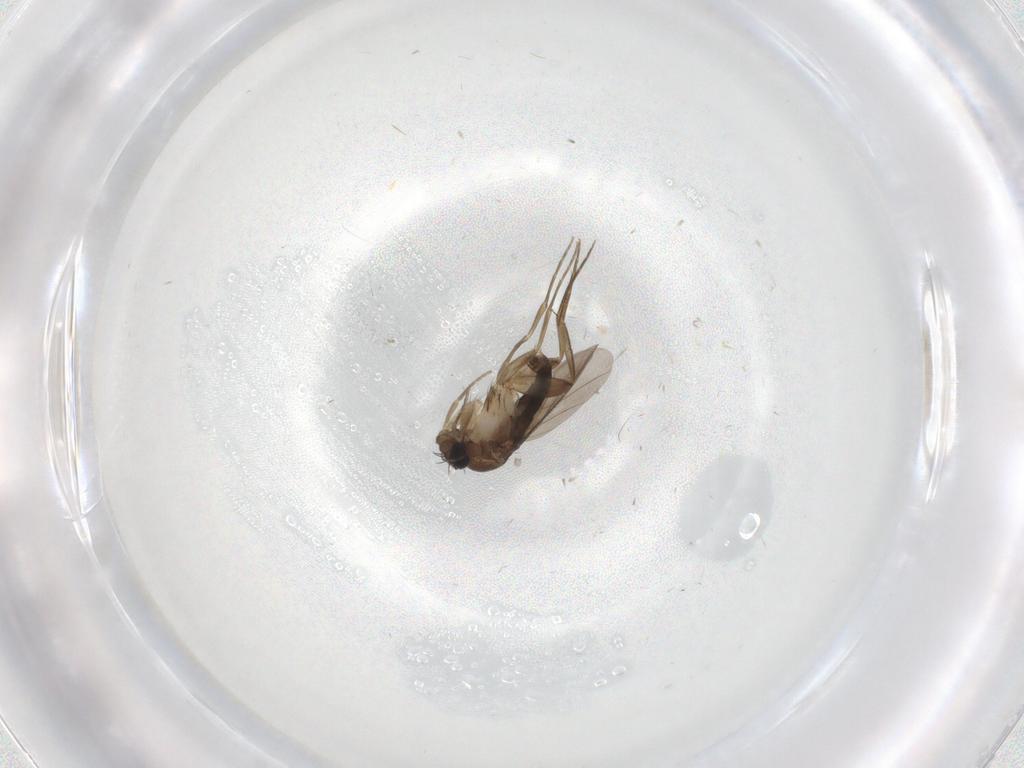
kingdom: Animalia
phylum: Arthropoda
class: Insecta
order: Diptera
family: Phoridae
